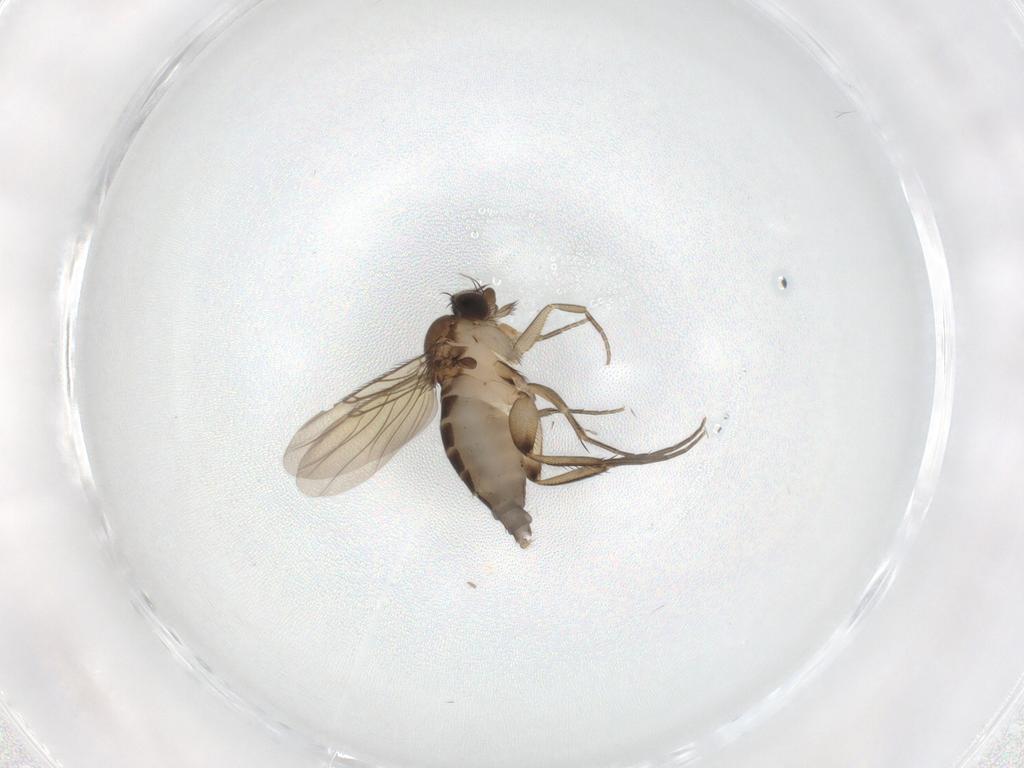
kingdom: Animalia
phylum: Arthropoda
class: Insecta
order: Diptera
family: Phoridae
